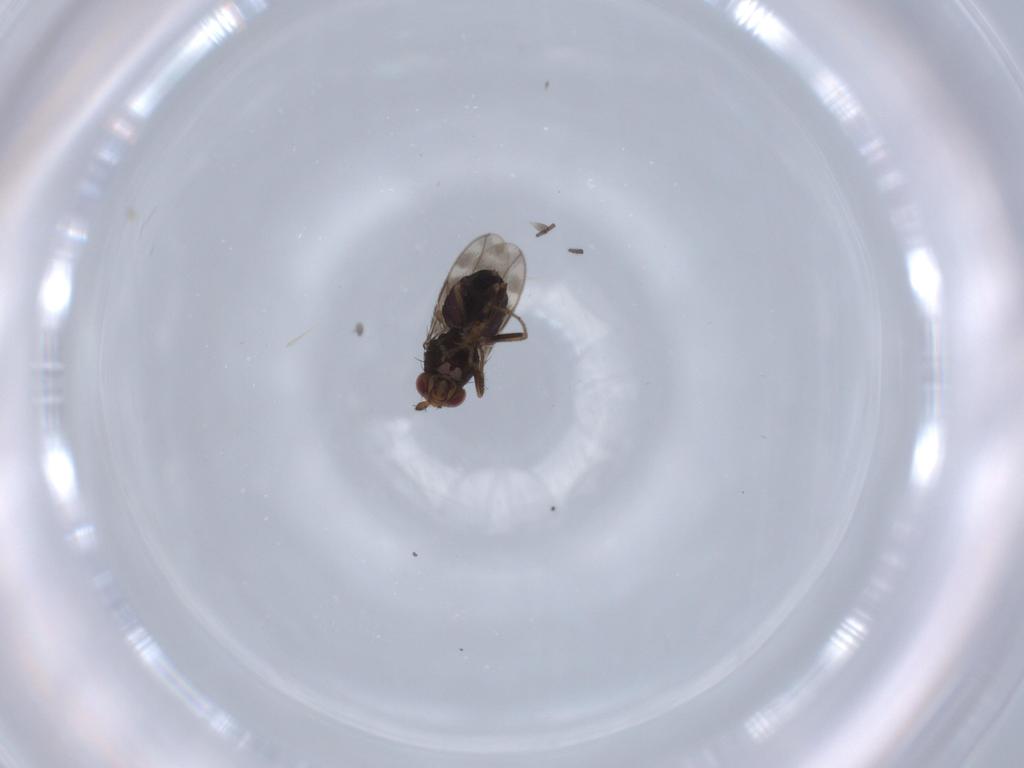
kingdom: Animalia
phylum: Arthropoda
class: Insecta
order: Diptera
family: Sphaeroceridae
